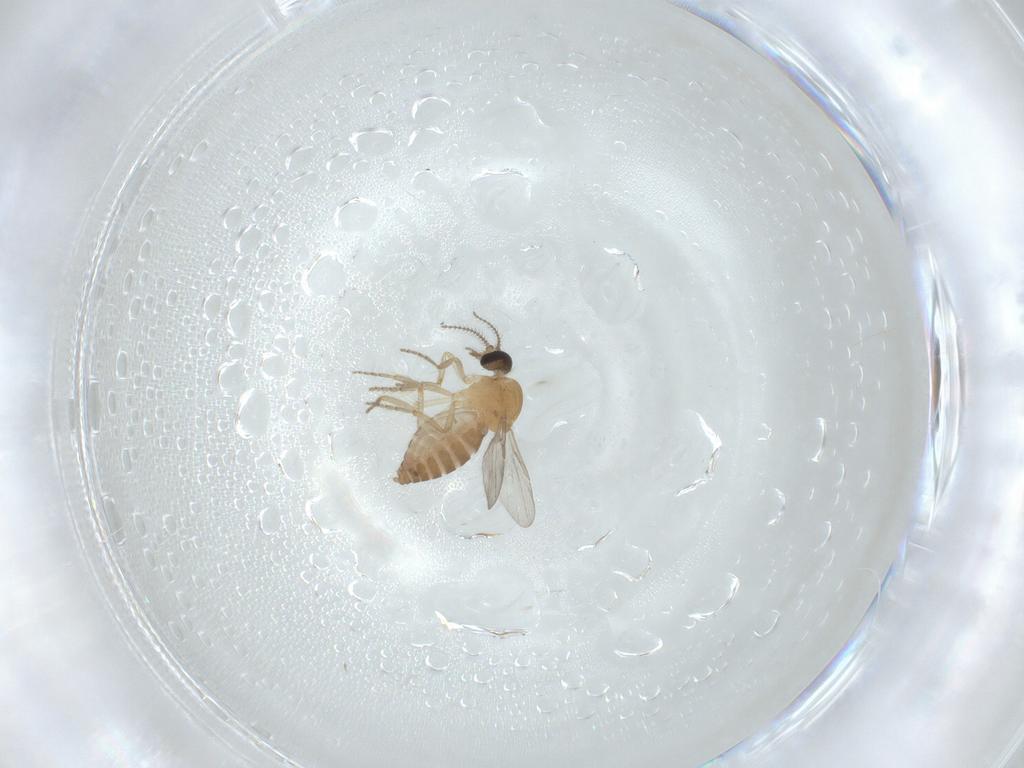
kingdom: Animalia
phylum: Arthropoda
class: Insecta
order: Diptera
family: Ceratopogonidae
